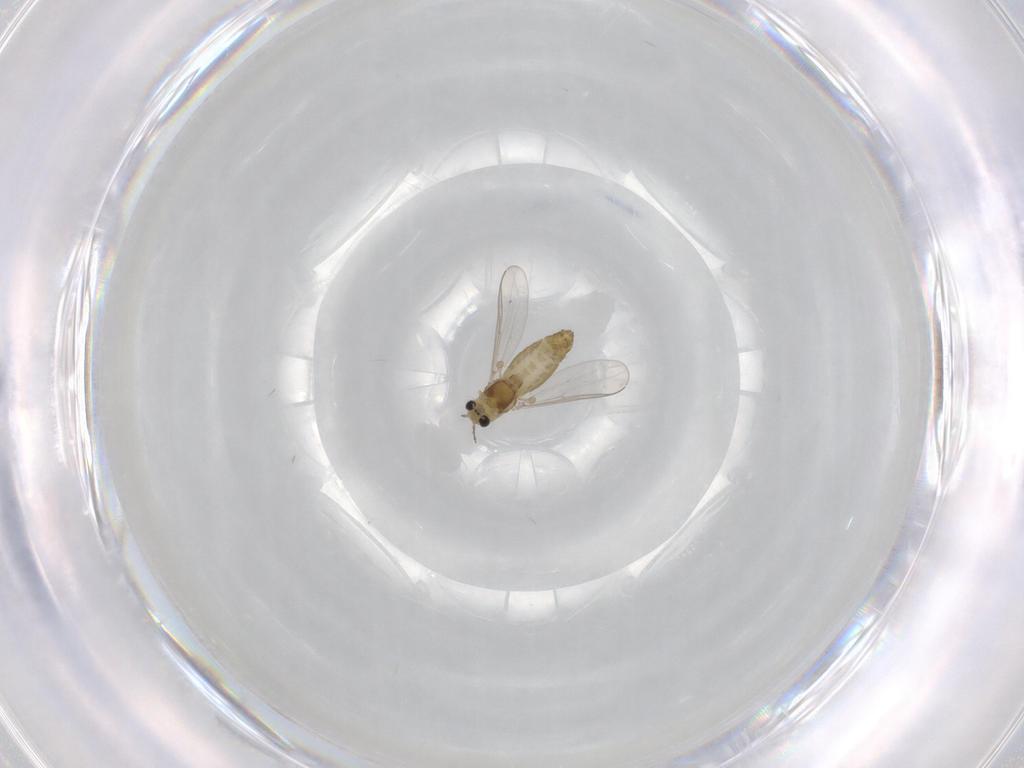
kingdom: Animalia
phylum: Arthropoda
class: Insecta
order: Diptera
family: Chironomidae
